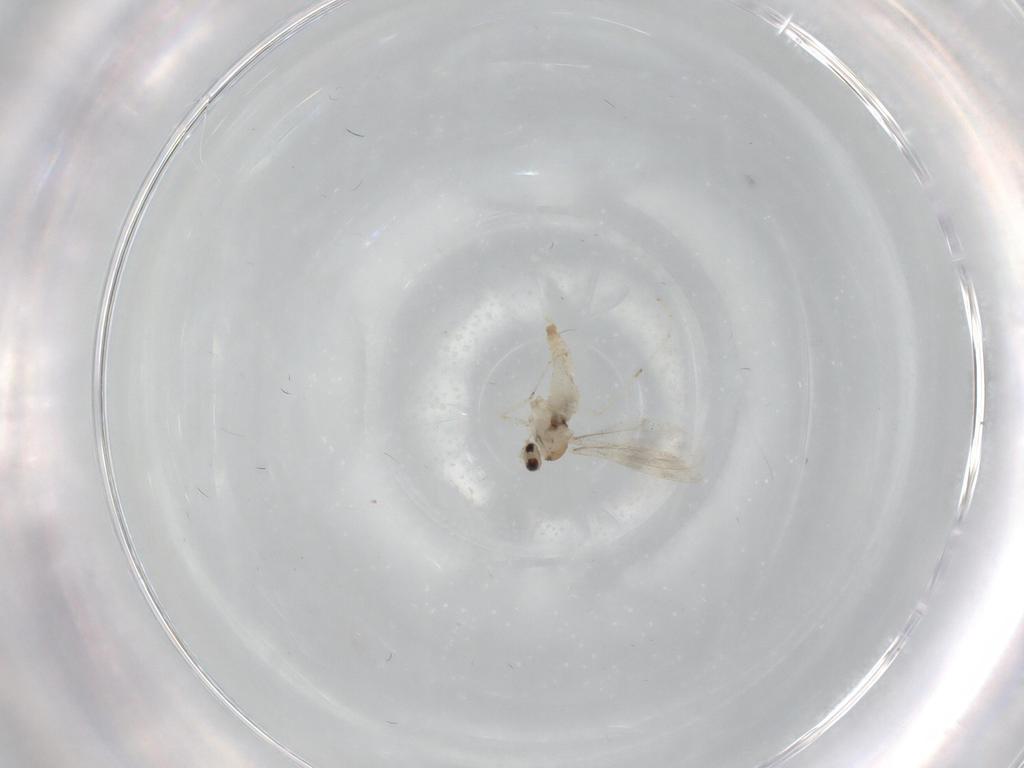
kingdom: Animalia
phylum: Arthropoda
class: Insecta
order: Diptera
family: Cecidomyiidae
